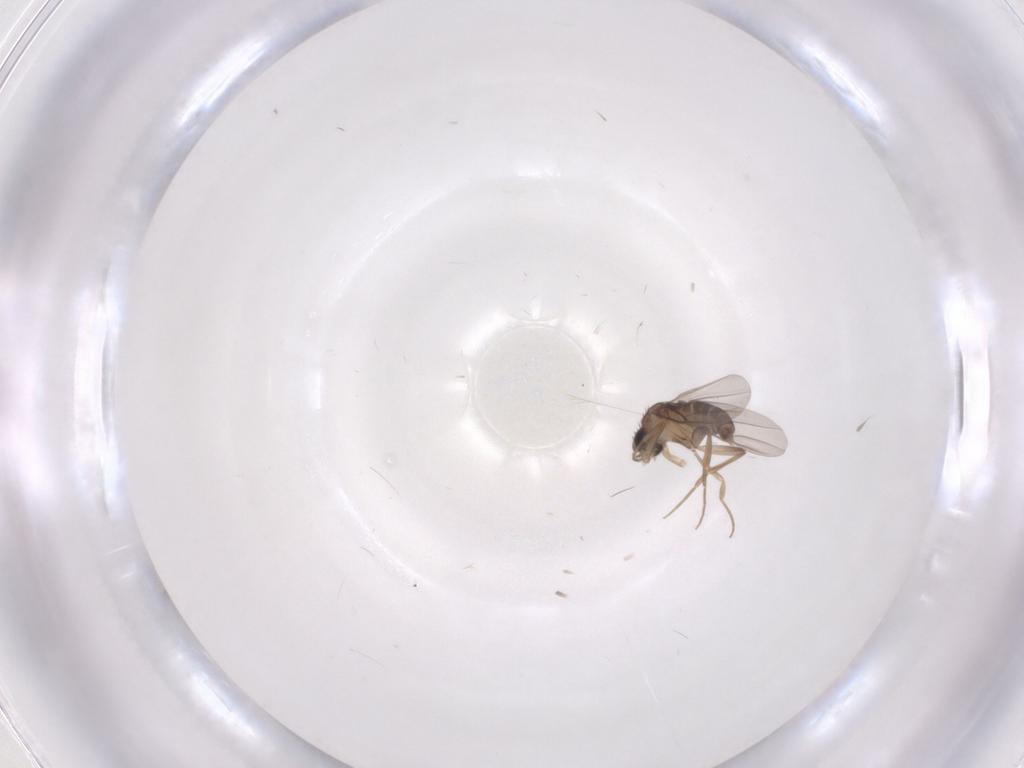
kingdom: Animalia
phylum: Arthropoda
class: Insecta
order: Diptera
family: Phoridae
